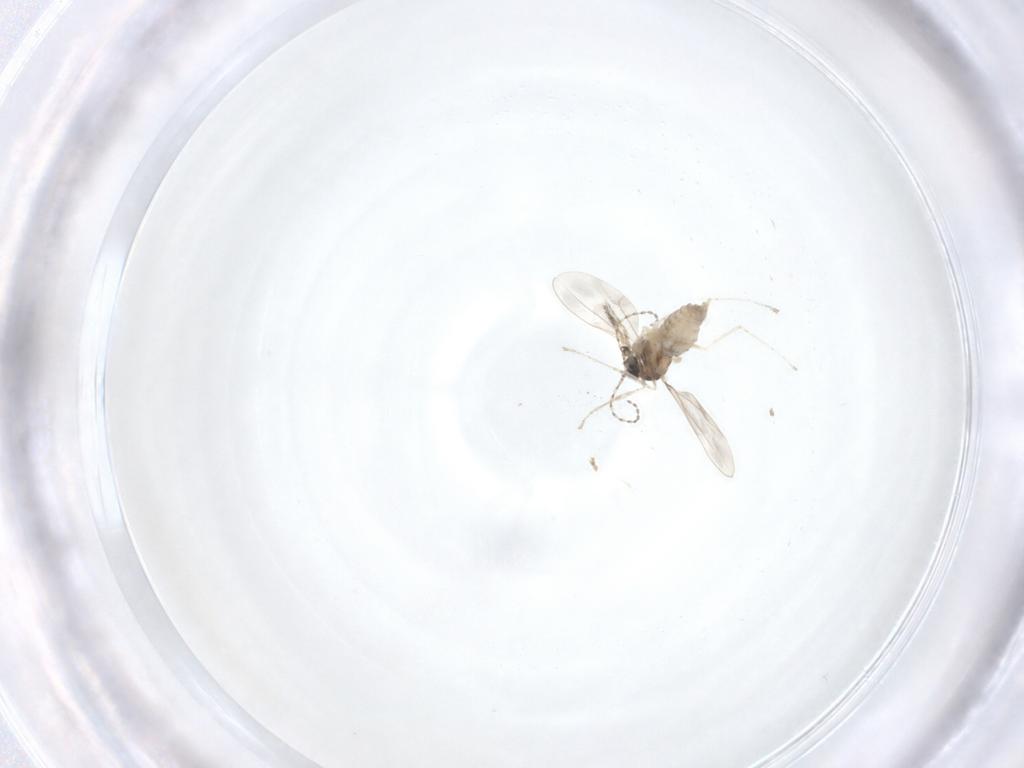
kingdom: Animalia
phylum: Arthropoda
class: Insecta
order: Diptera
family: Cecidomyiidae
